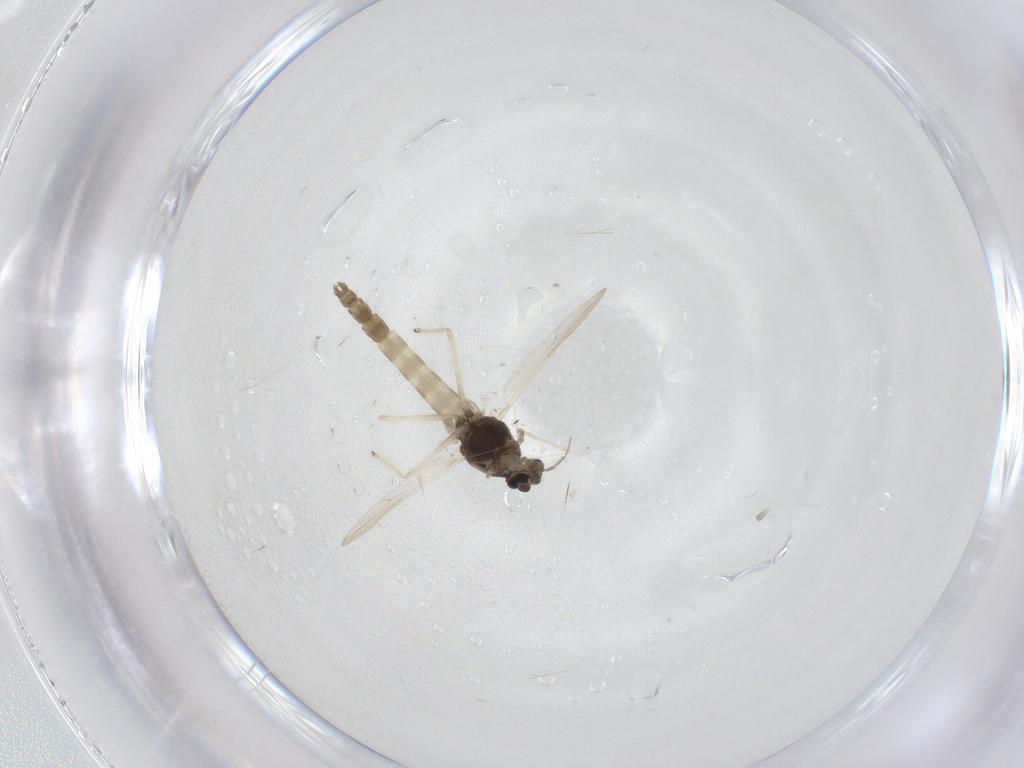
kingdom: Animalia
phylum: Arthropoda
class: Insecta
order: Diptera
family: Chironomidae
